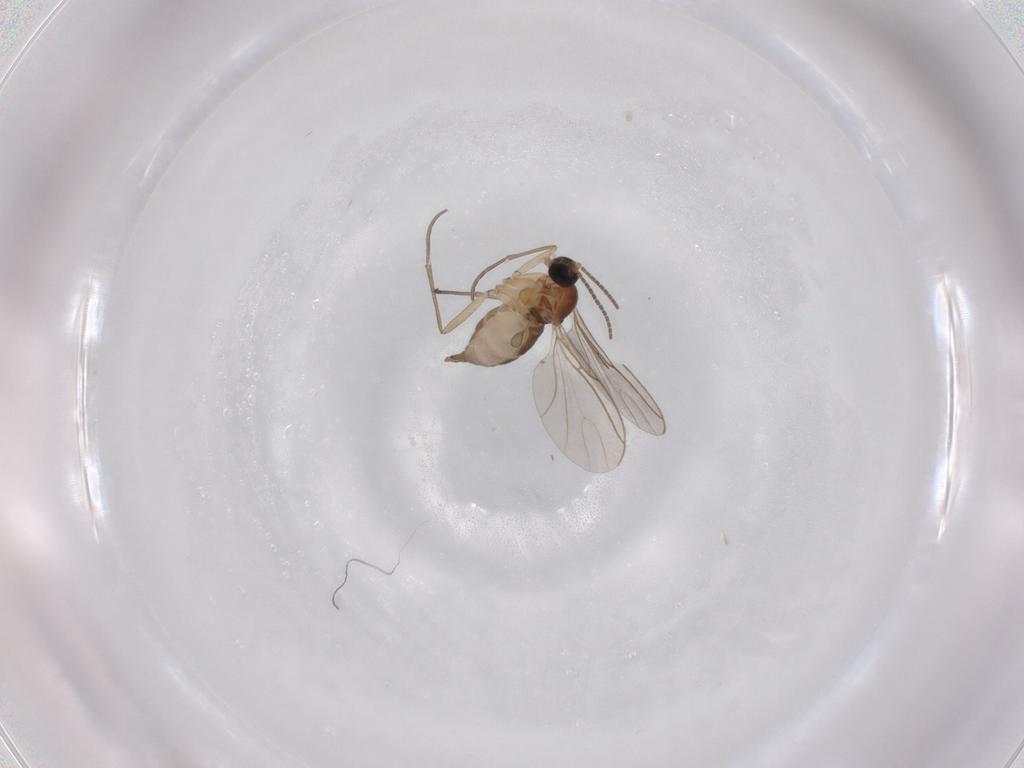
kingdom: Animalia
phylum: Arthropoda
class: Insecta
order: Diptera
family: Sciaridae
